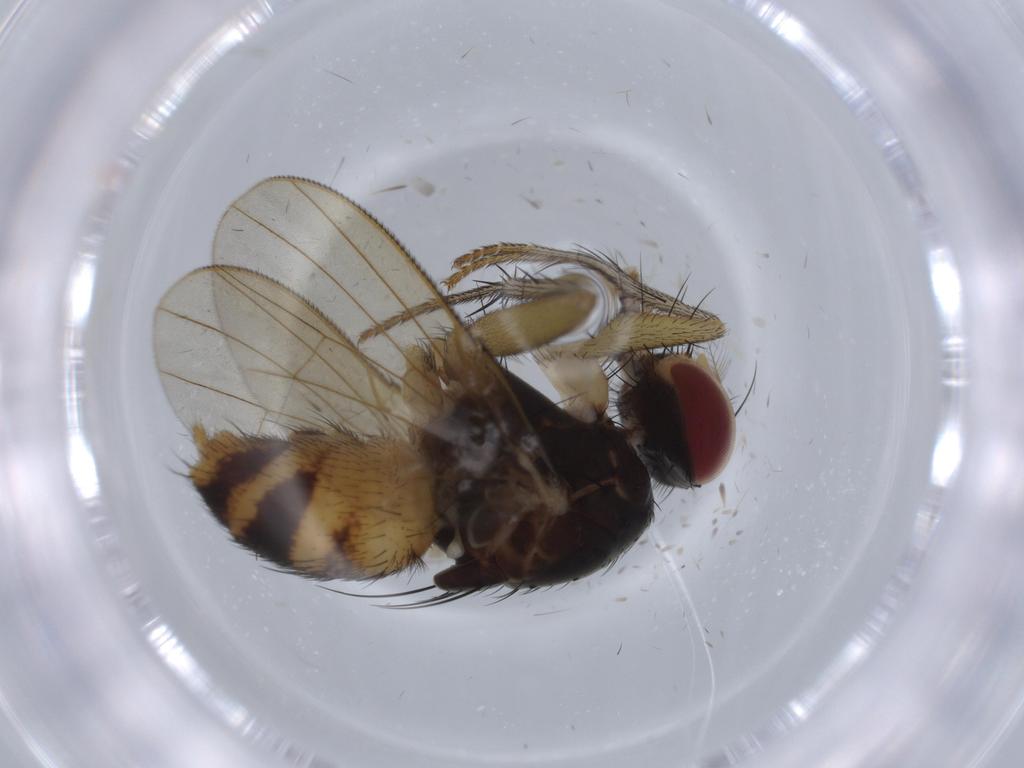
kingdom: Animalia
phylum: Arthropoda
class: Insecta
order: Diptera
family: Muscidae
